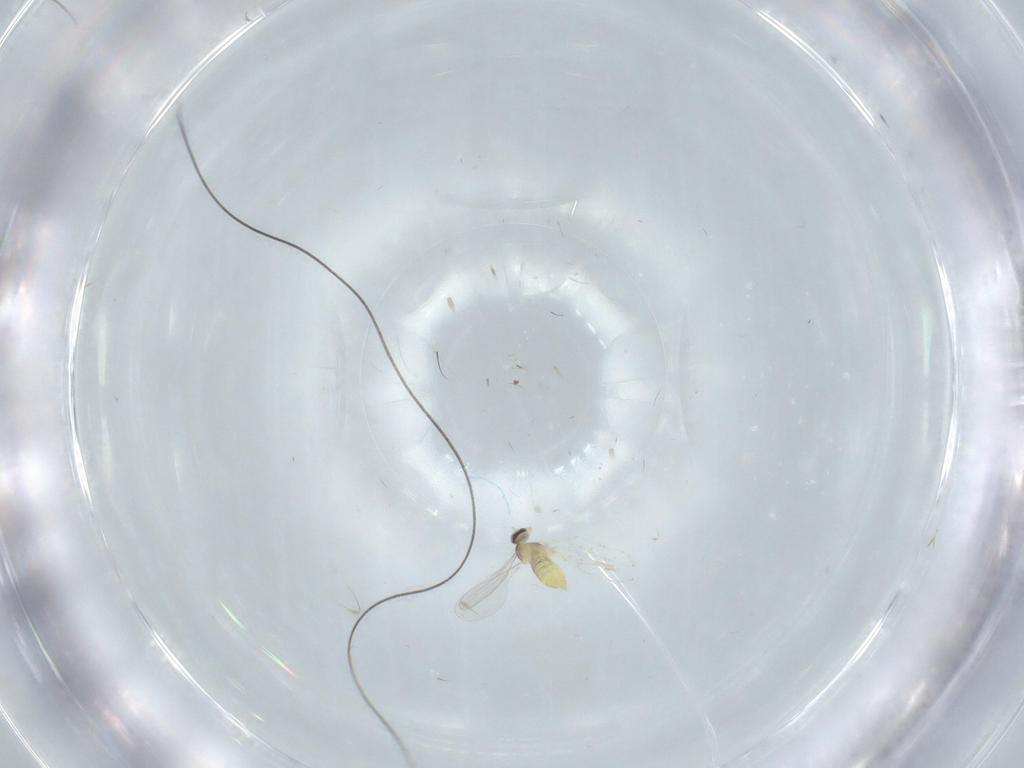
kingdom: Animalia
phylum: Arthropoda
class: Insecta
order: Diptera
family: Cecidomyiidae
